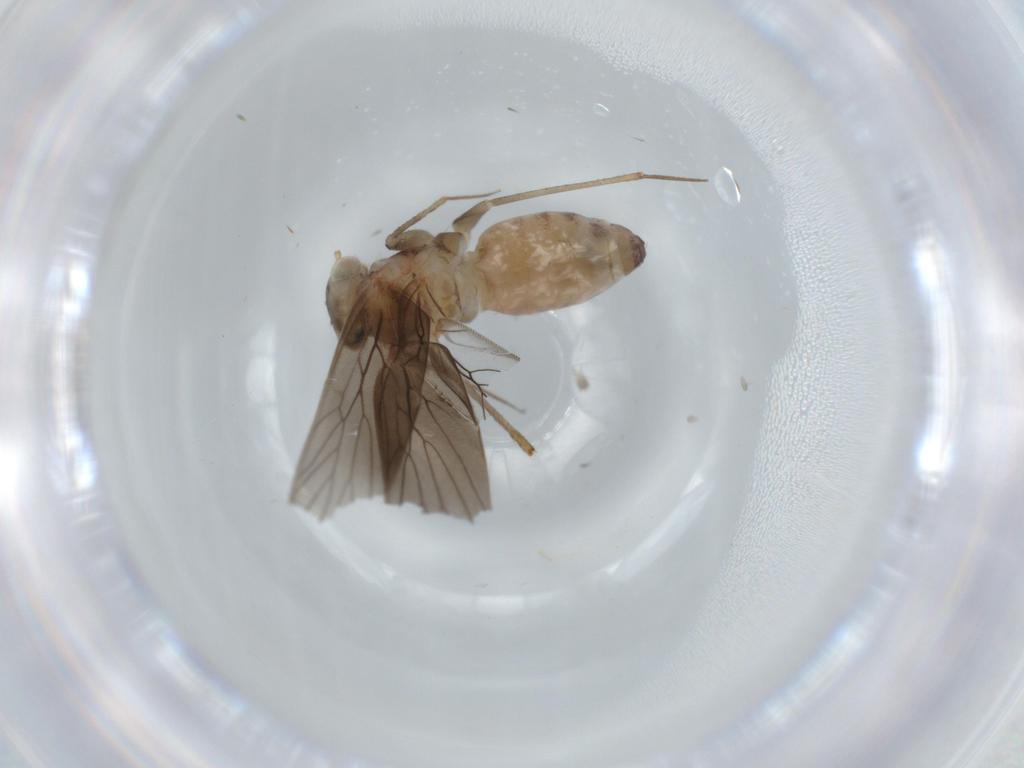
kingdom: Animalia
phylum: Arthropoda
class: Insecta
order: Psocodea
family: Lepidopsocidae
